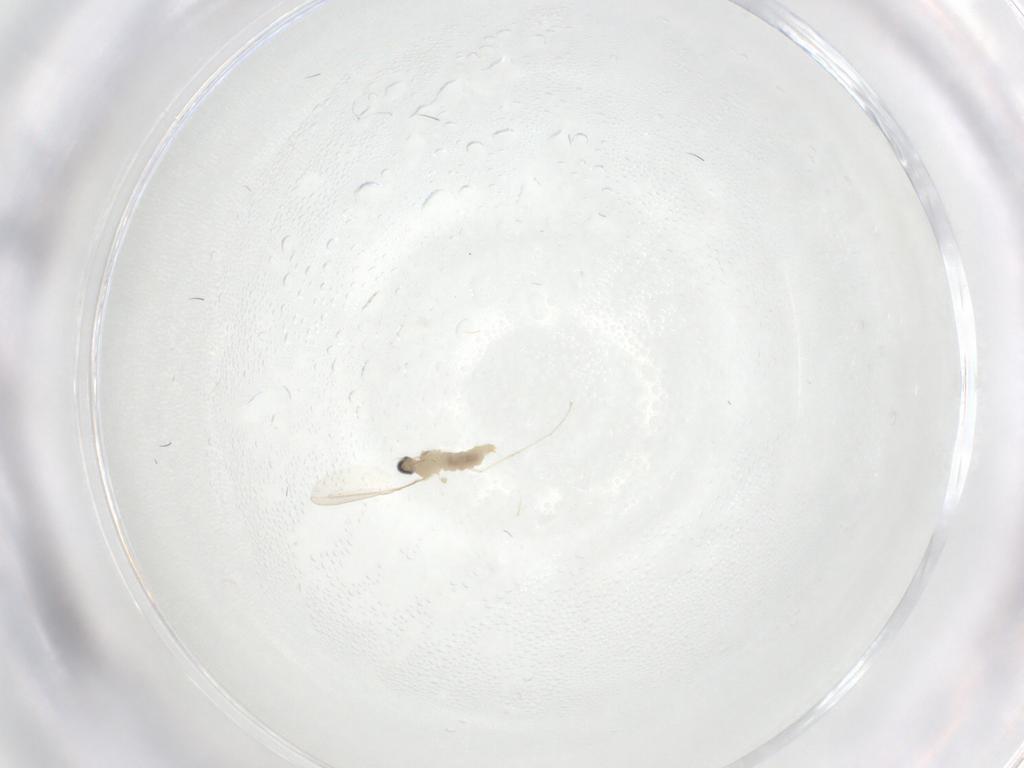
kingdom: Animalia
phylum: Arthropoda
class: Insecta
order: Diptera
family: Cecidomyiidae
